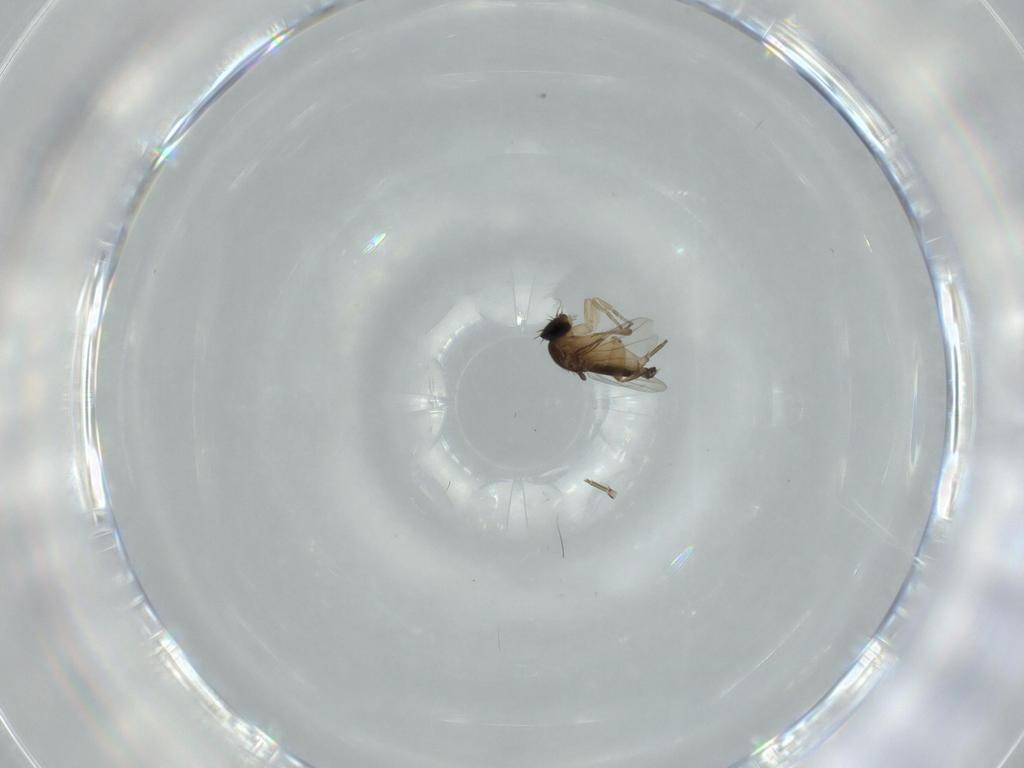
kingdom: Animalia
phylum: Arthropoda
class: Insecta
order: Diptera
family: Phoridae
